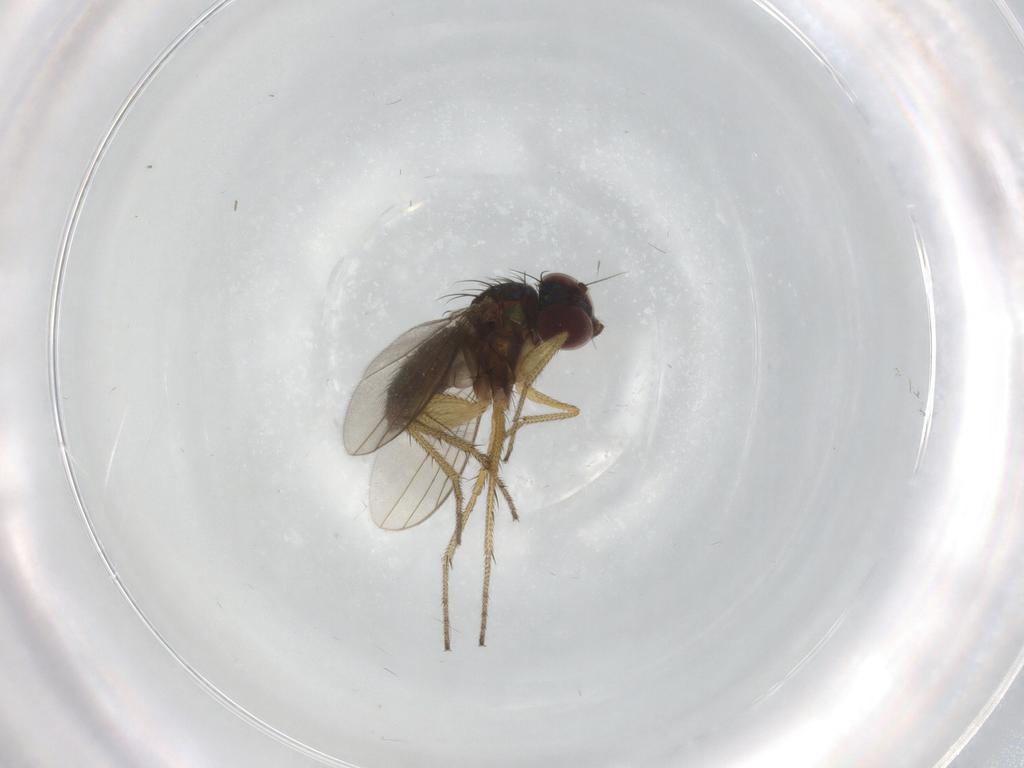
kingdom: Animalia
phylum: Arthropoda
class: Insecta
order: Diptera
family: Dolichopodidae
